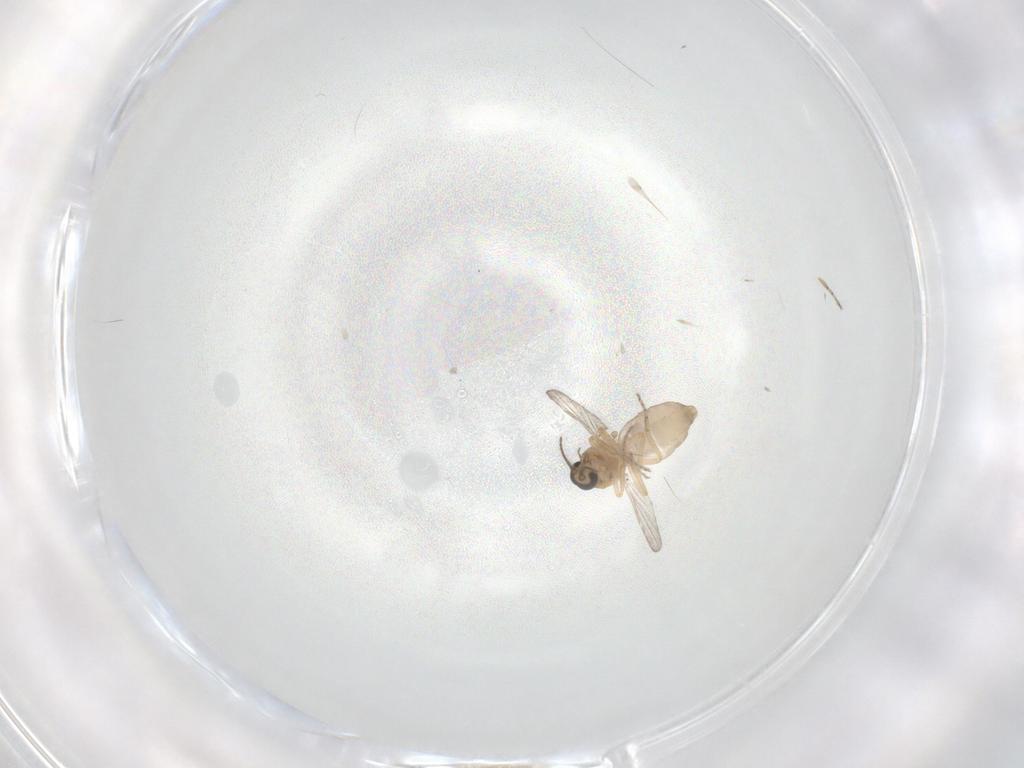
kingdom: Animalia
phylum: Arthropoda
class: Insecta
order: Diptera
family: Ceratopogonidae
